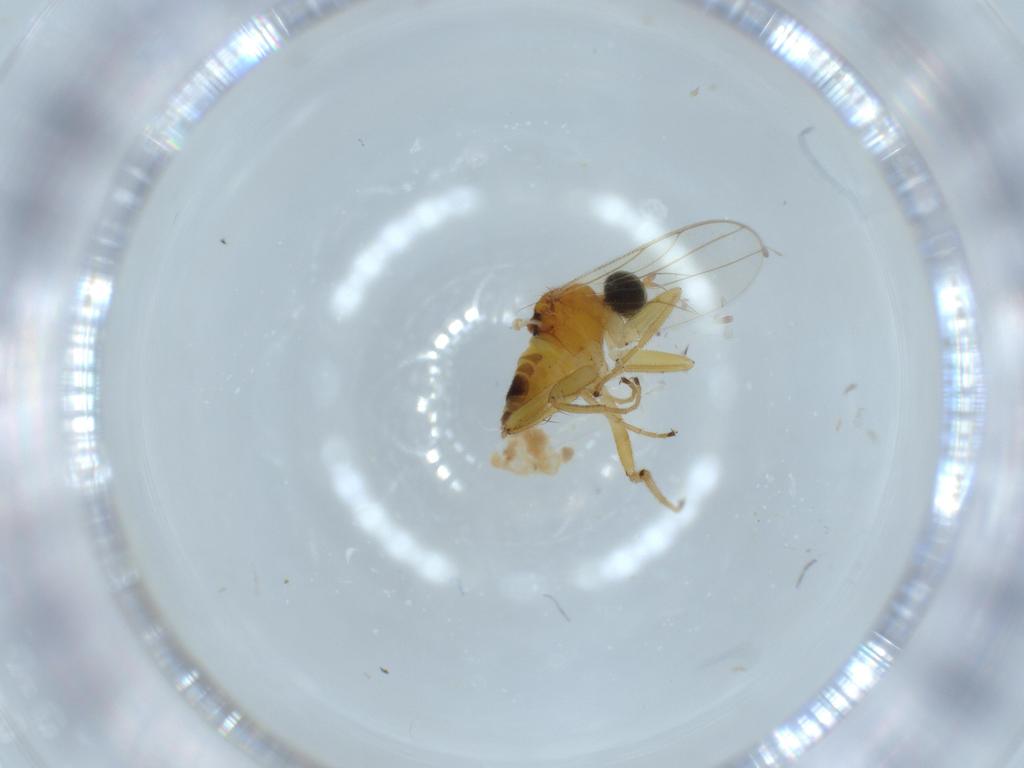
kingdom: Animalia
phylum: Arthropoda
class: Insecta
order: Diptera
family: Hybotidae
